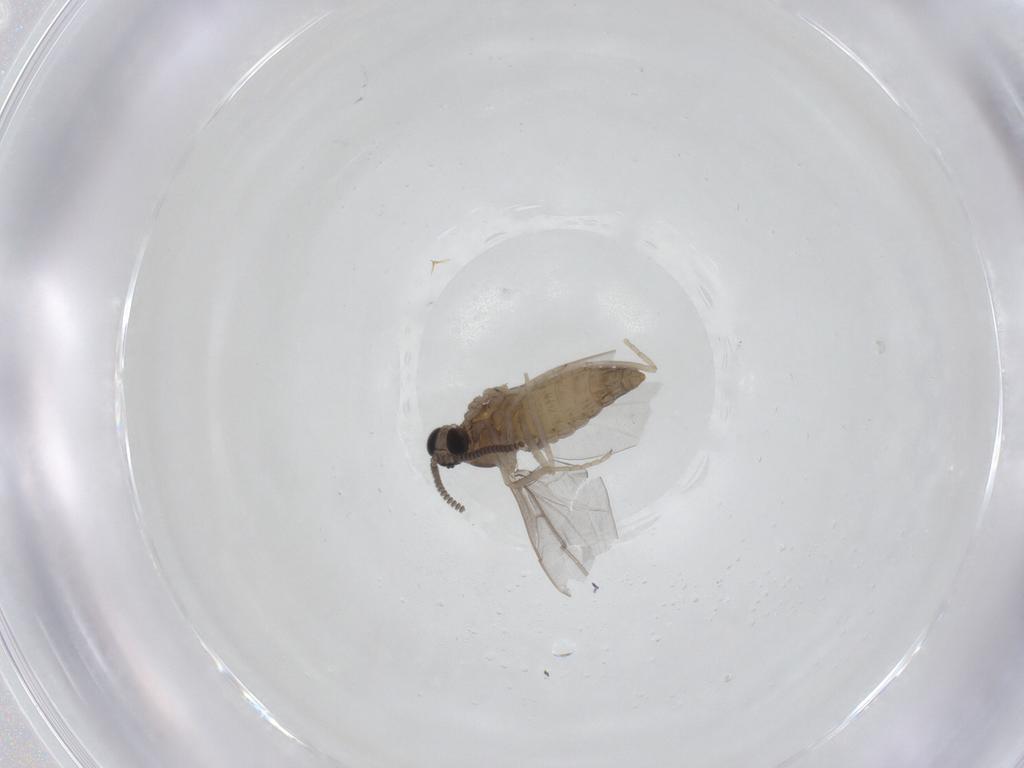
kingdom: Animalia
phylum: Arthropoda
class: Insecta
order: Diptera
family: Cecidomyiidae
